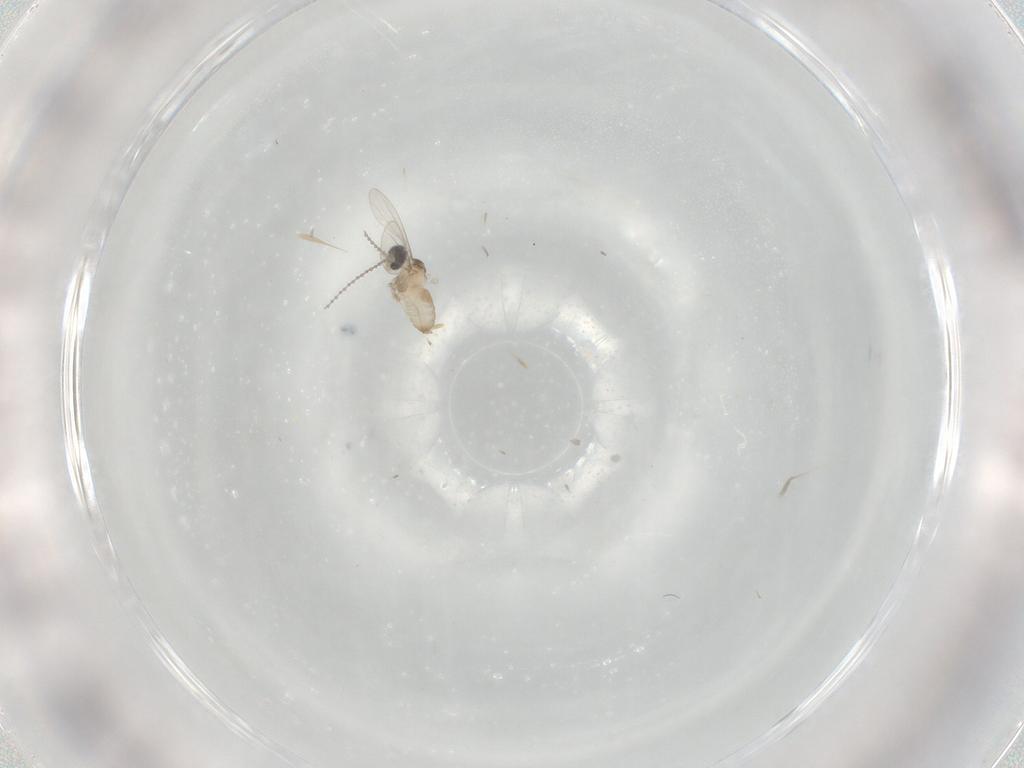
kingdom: Animalia
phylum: Arthropoda
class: Insecta
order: Diptera
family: Cecidomyiidae
